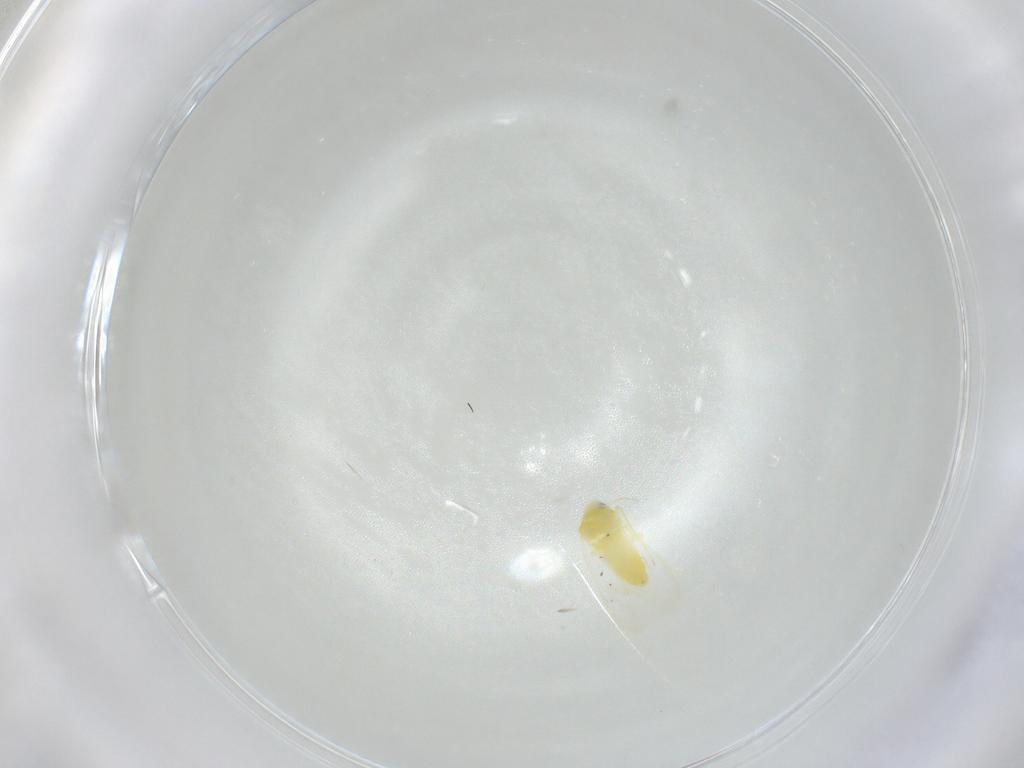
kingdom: Animalia
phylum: Arthropoda
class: Insecta
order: Hemiptera
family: Aleyrodidae
